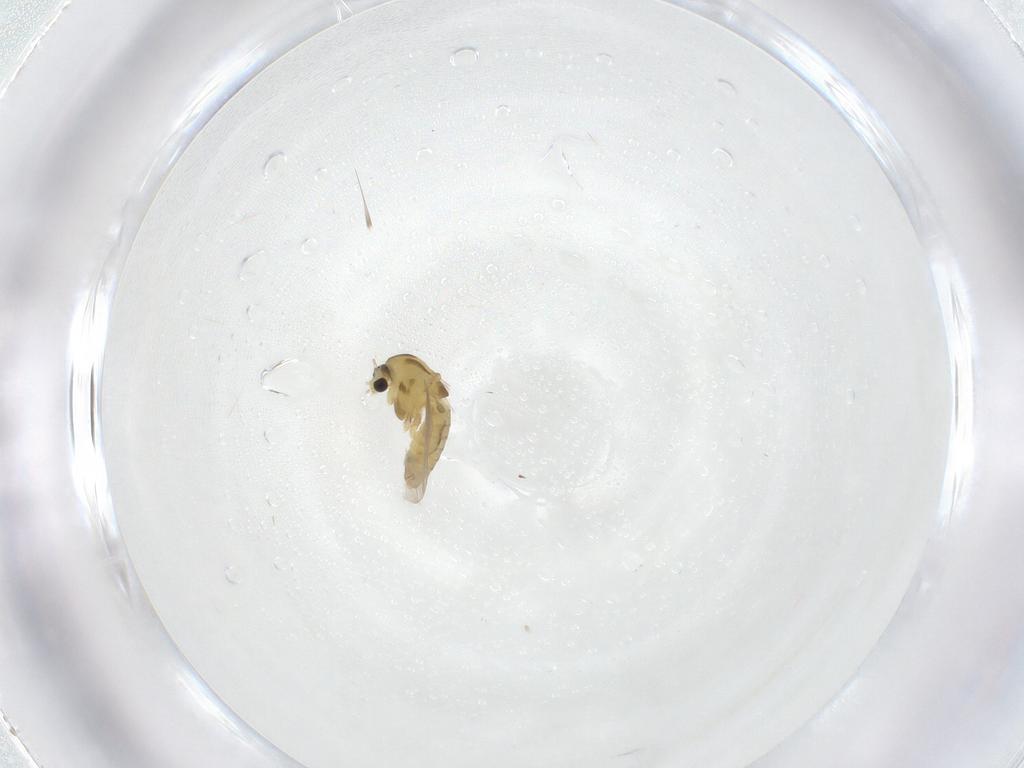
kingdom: Animalia
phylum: Arthropoda
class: Insecta
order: Diptera
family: Chironomidae
